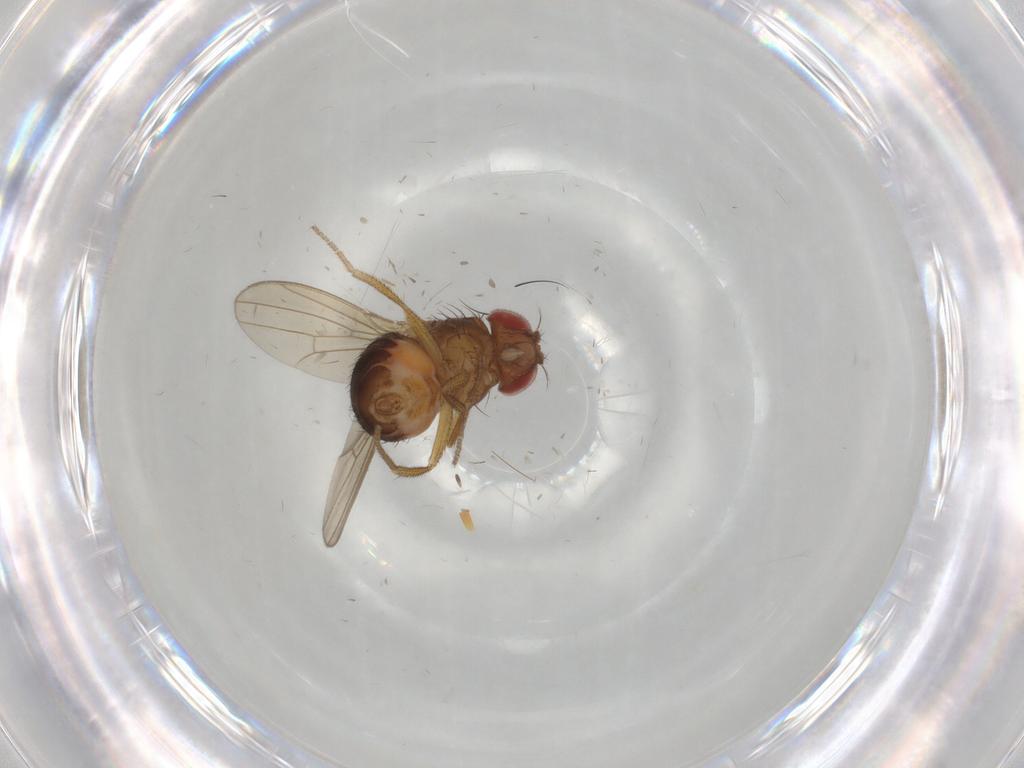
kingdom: Animalia
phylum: Arthropoda
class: Insecta
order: Diptera
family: Drosophilidae
